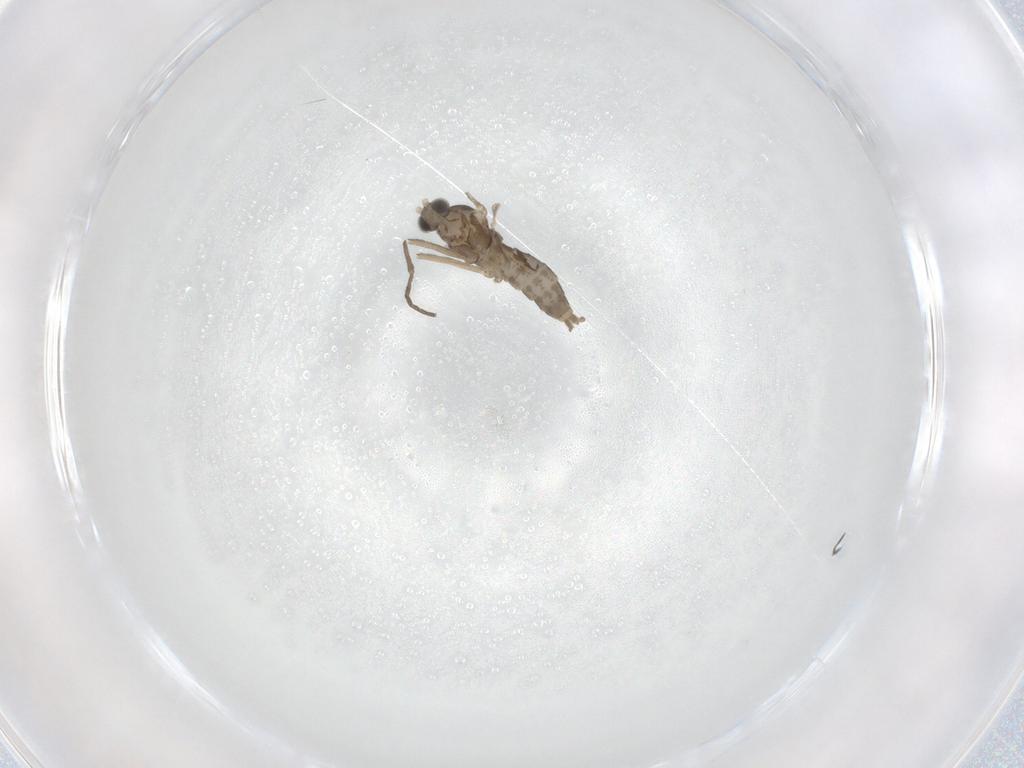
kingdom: Animalia
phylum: Arthropoda
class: Insecta
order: Diptera
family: Cecidomyiidae
